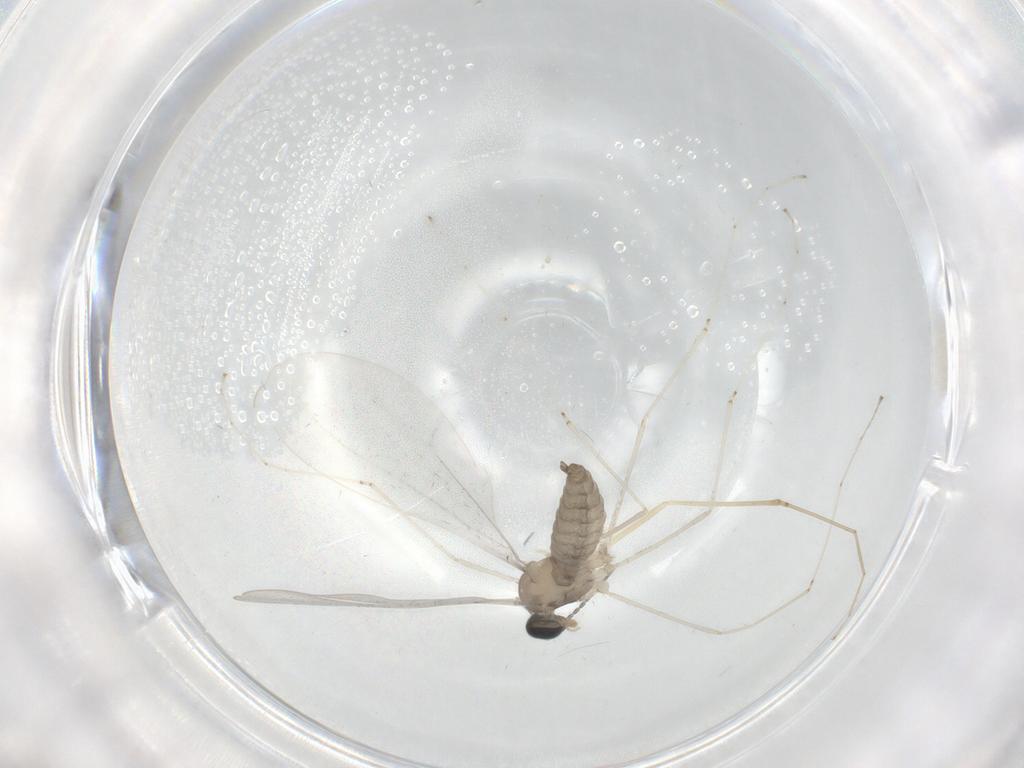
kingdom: Animalia
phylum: Arthropoda
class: Insecta
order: Diptera
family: Cecidomyiidae
